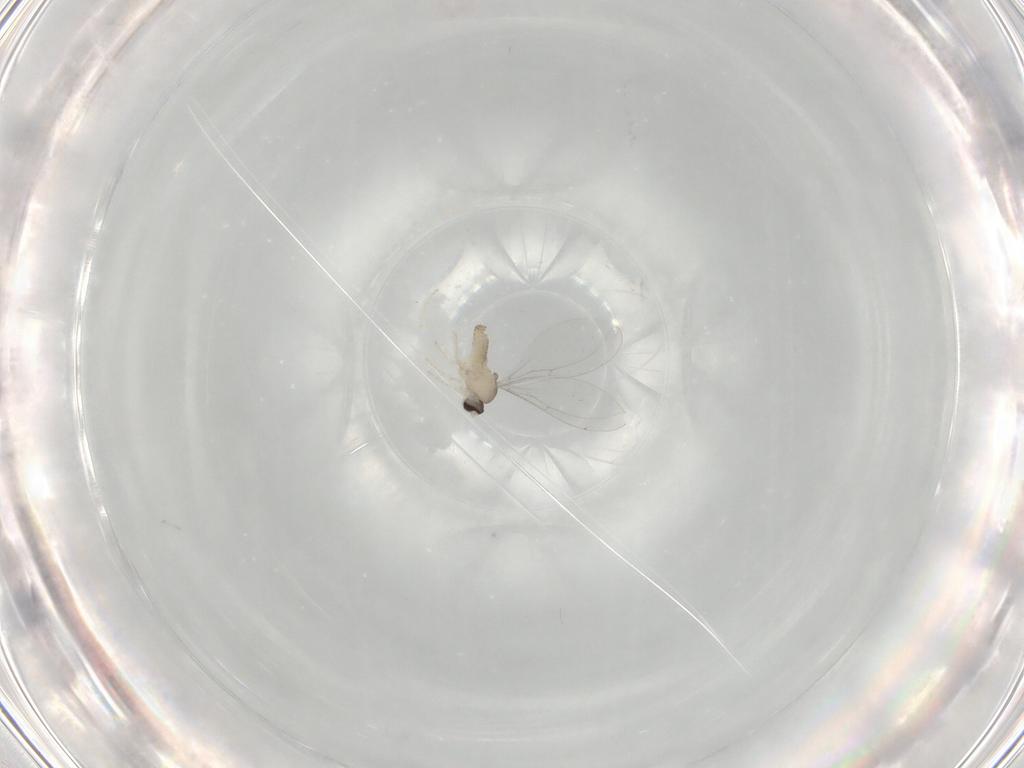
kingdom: Animalia
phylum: Arthropoda
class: Insecta
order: Diptera
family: Cecidomyiidae
